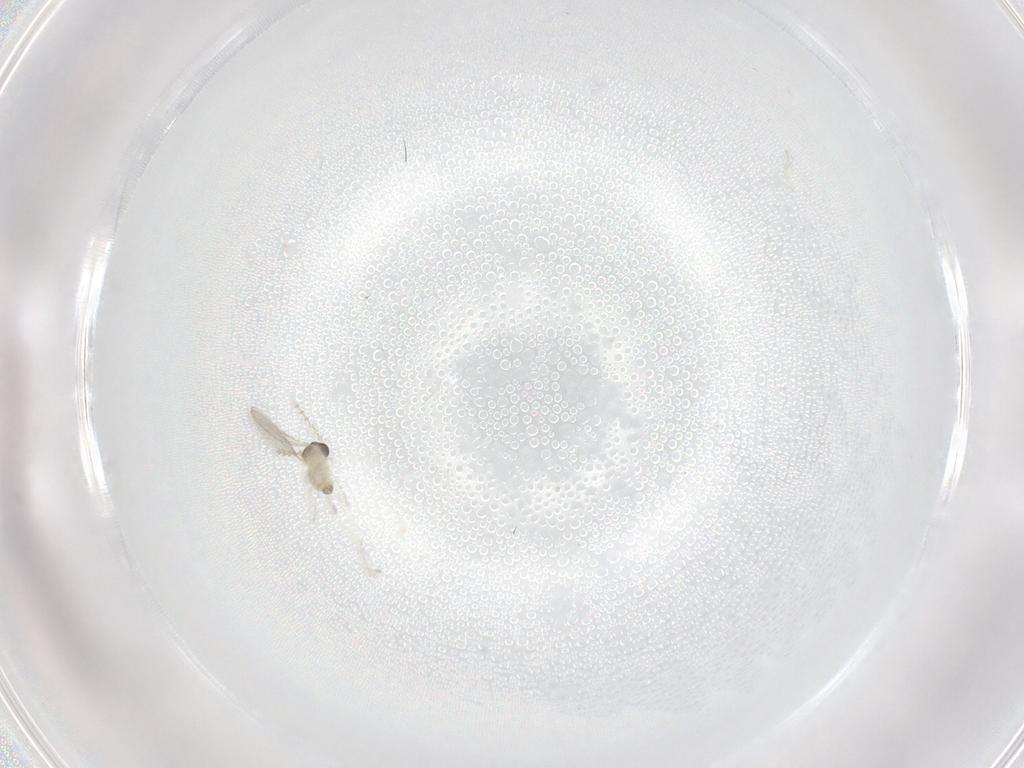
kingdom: Animalia
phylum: Arthropoda
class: Insecta
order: Diptera
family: Cecidomyiidae
